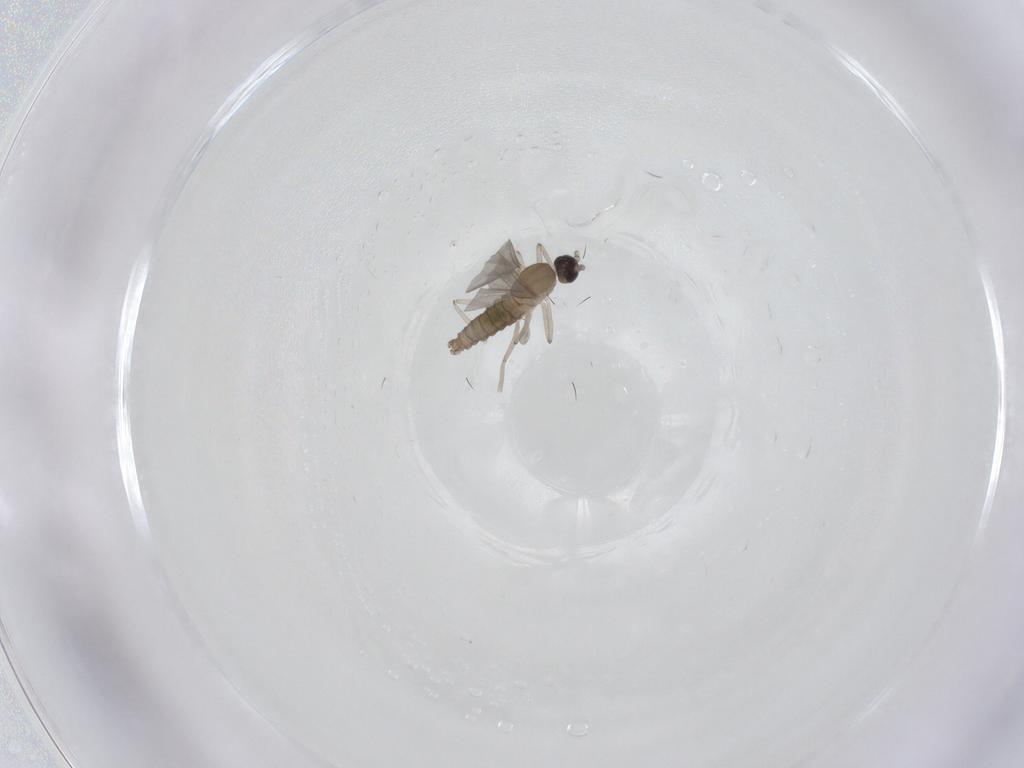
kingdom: Animalia
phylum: Arthropoda
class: Insecta
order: Diptera
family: Cecidomyiidae
